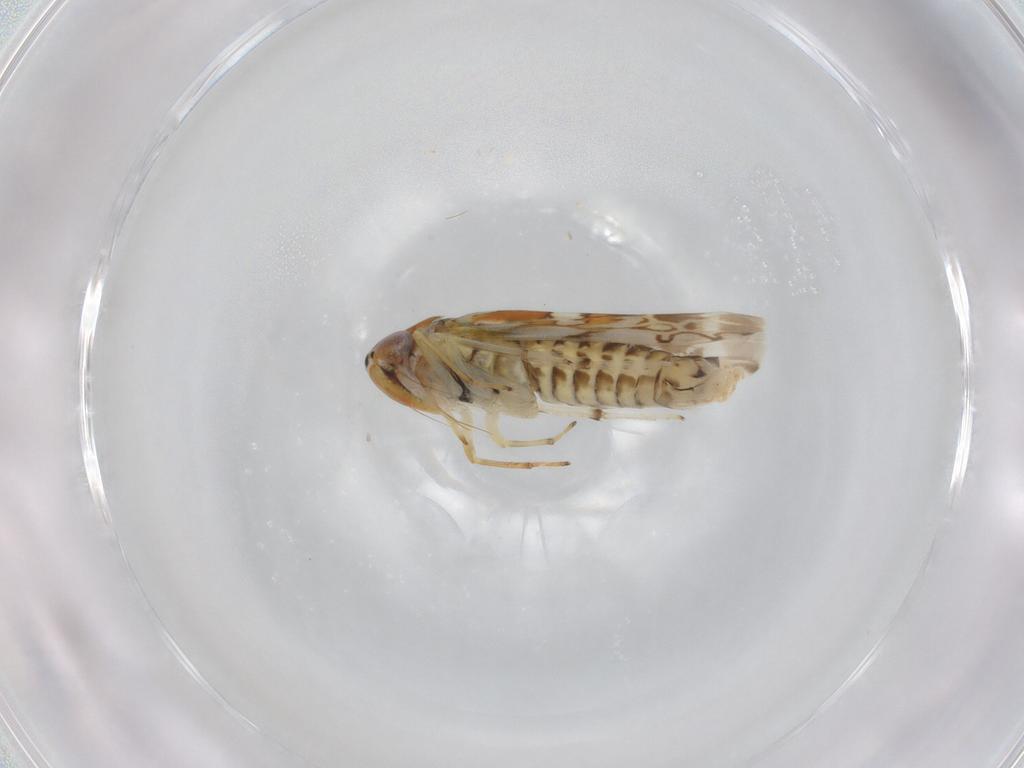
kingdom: Animalia
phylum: Arthropoda
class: Insecta
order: Hemiptera
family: Cicadellidae
